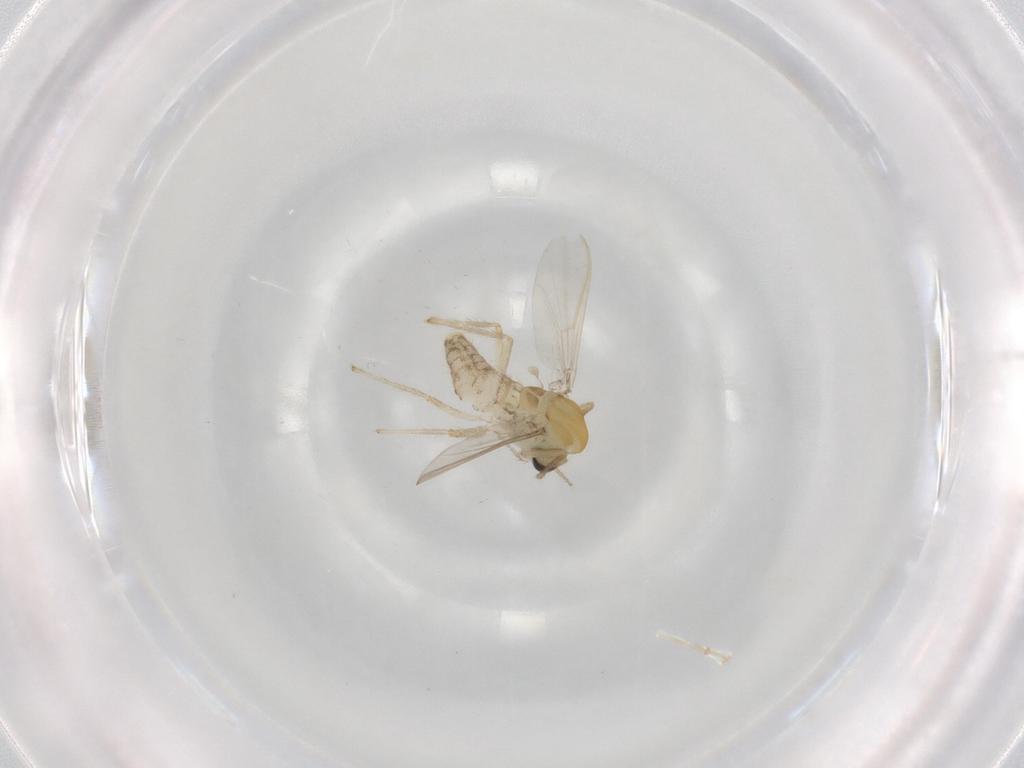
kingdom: Animalia
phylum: Arthropoda
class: Insecta
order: Diptera
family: Chironomidae
